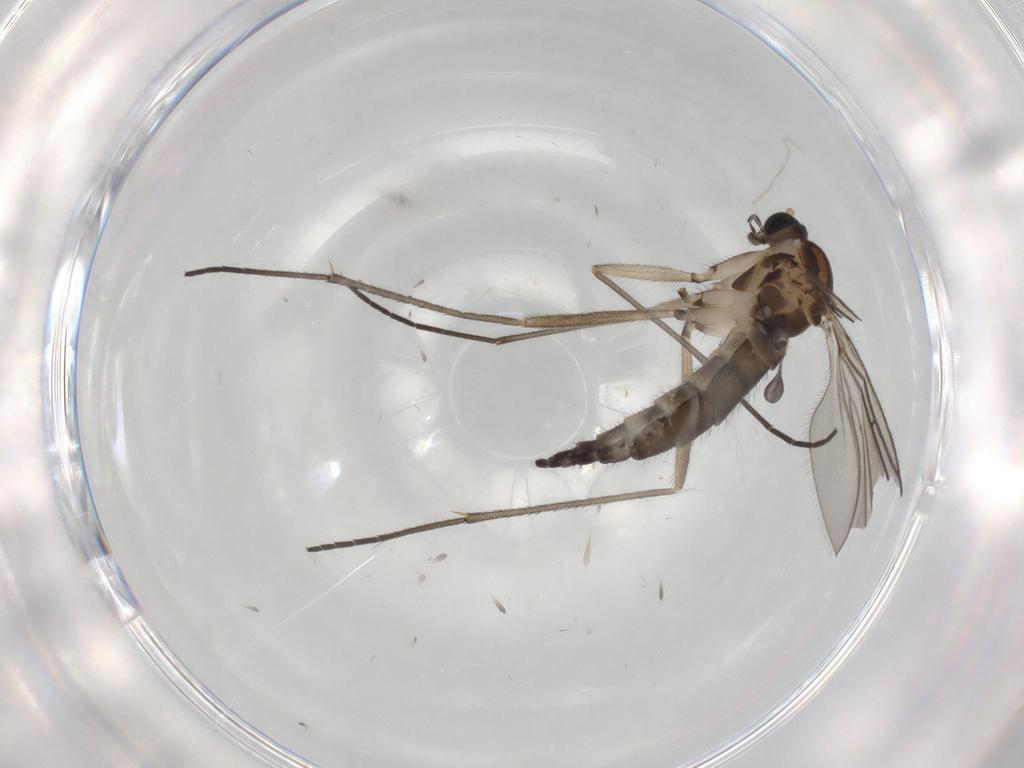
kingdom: Animalia
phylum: Arthropoda
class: Insecta
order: Diptera
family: Sciaridae
